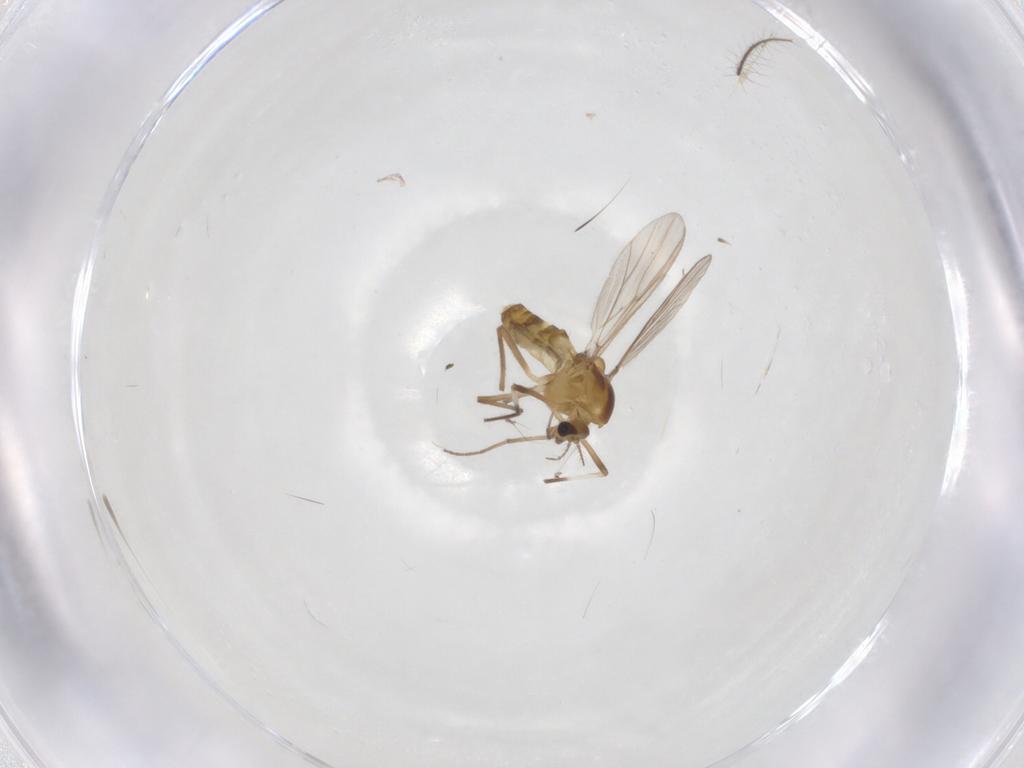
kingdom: Animalia
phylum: Arthropoda
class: Insecta
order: Diptera
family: Chironomidae
